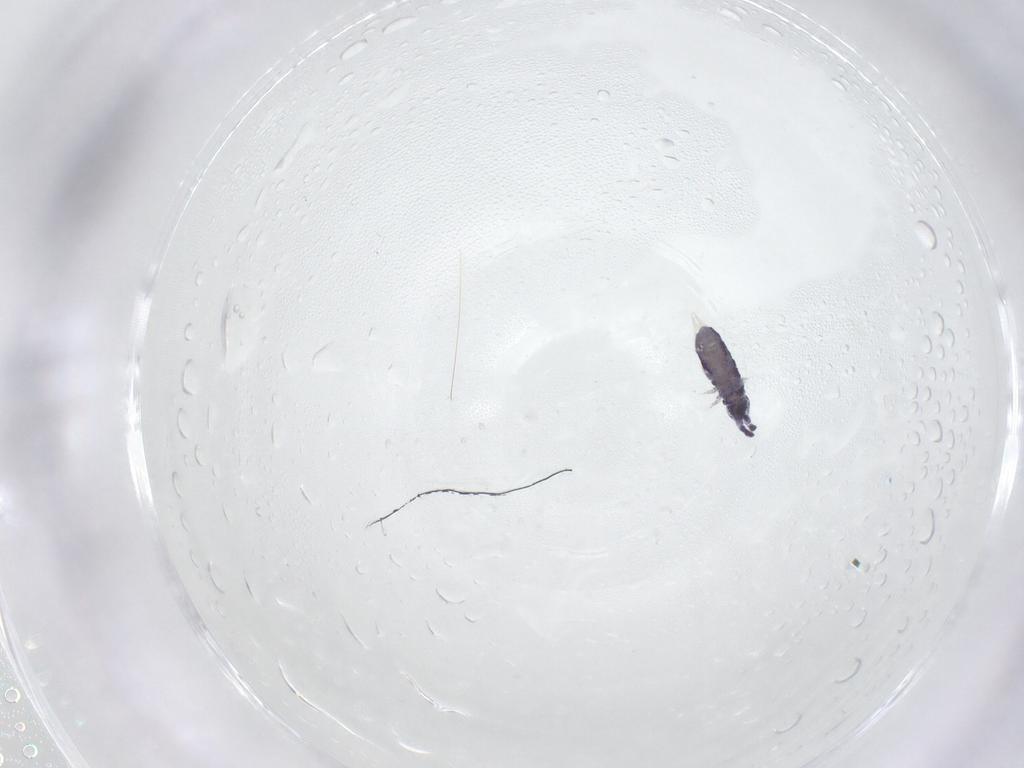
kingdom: Animalia
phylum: Arthropoda
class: Collembola
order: Poduromorpha
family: Neanuridae
